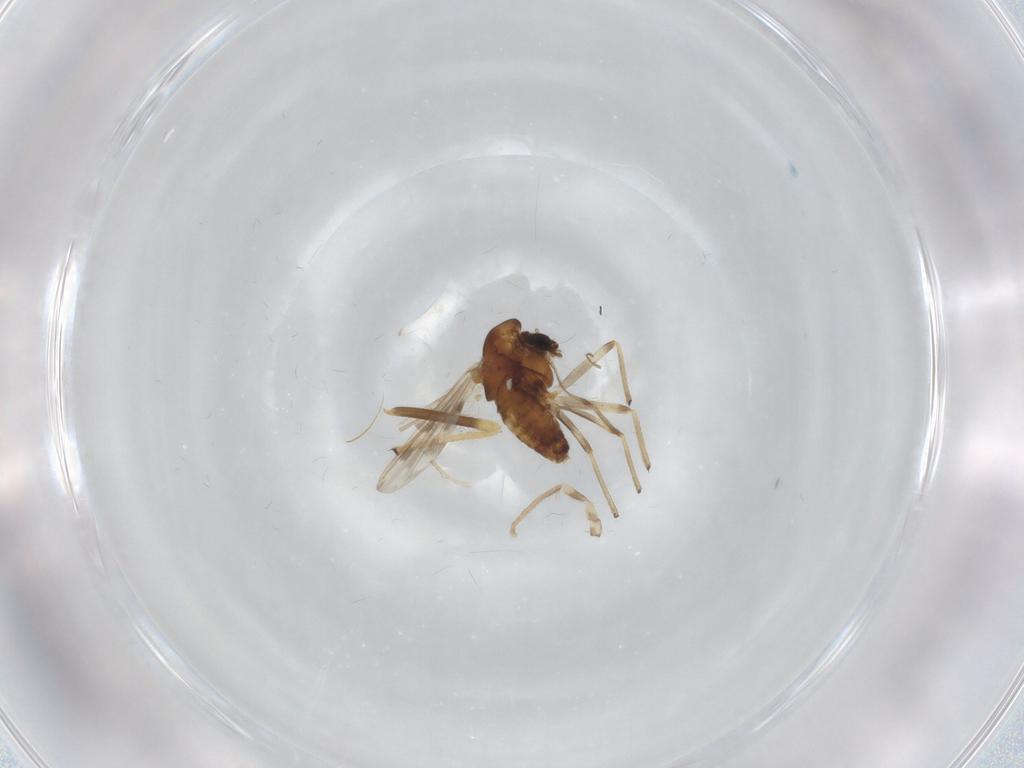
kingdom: Animalia
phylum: Arthropoda
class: Insecta
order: Diptera
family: Chironomidae
